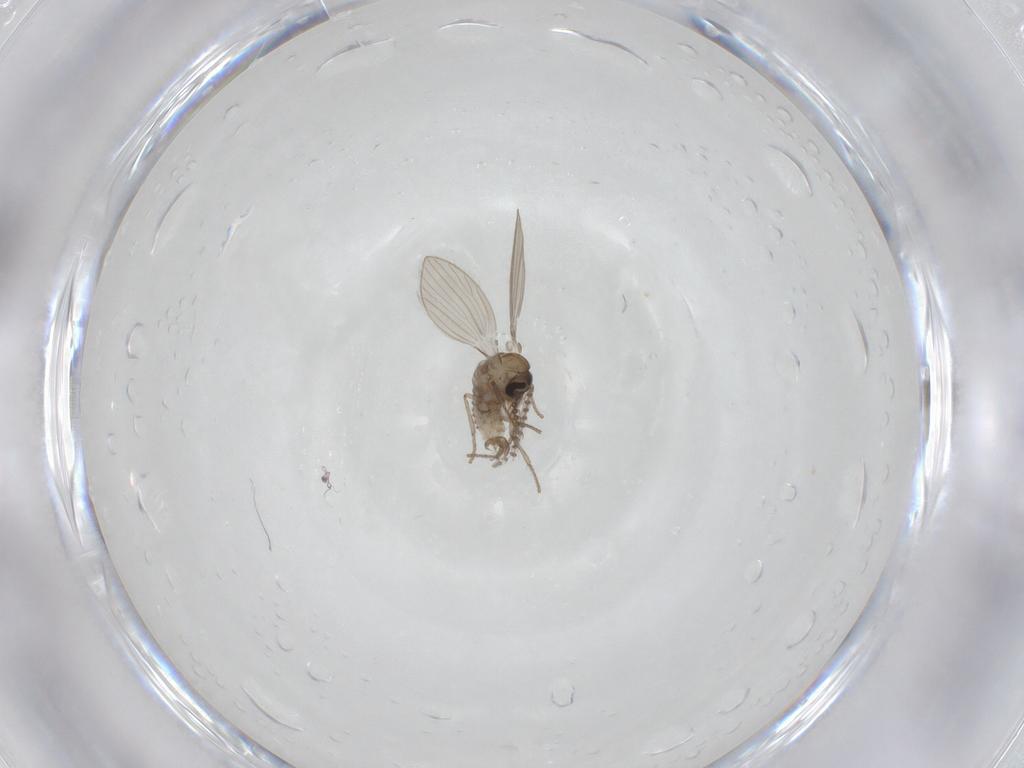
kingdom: Animalia
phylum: Arthropoda
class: Insecta
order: Diptera
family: Psychodidae
